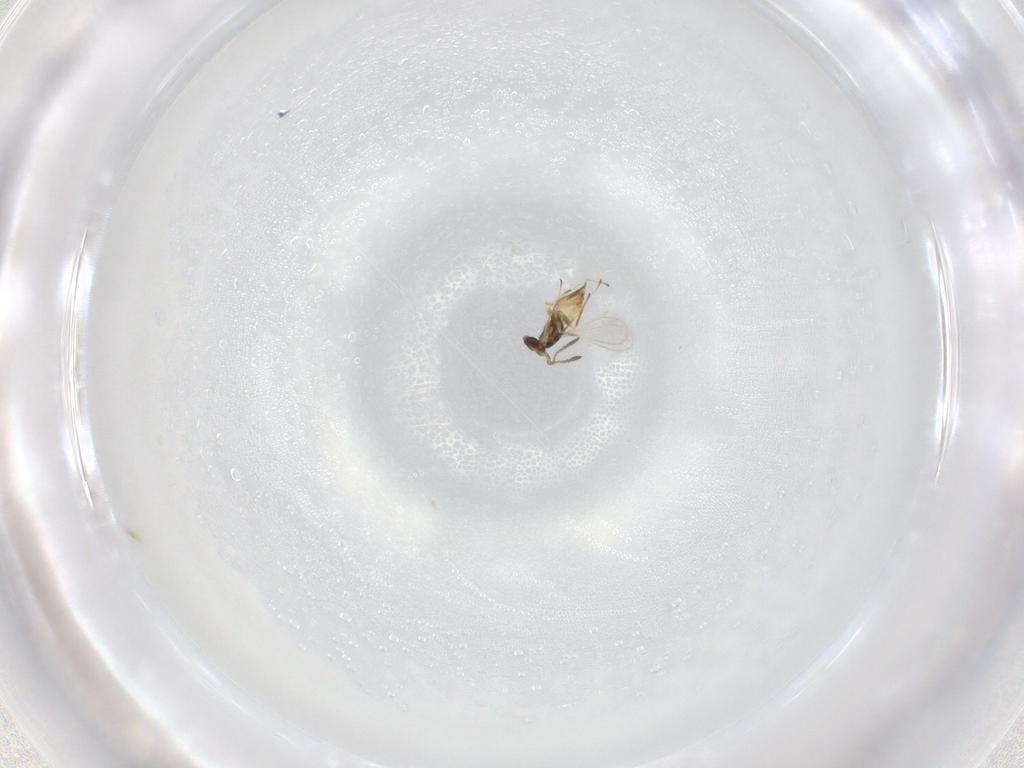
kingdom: Animalia
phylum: Arthropoda
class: Insecta
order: Hymenoptera
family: Mymaridae
